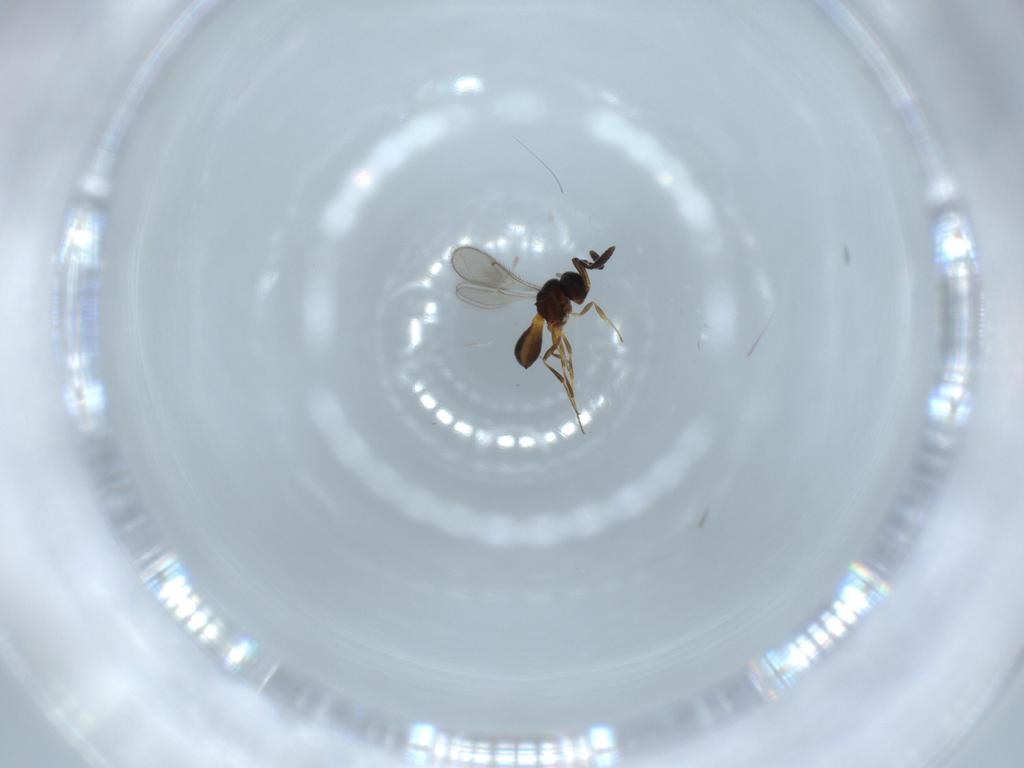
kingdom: Animalia
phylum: Arthropoda
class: Insecta
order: Hymenoptera
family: Scelionidae
